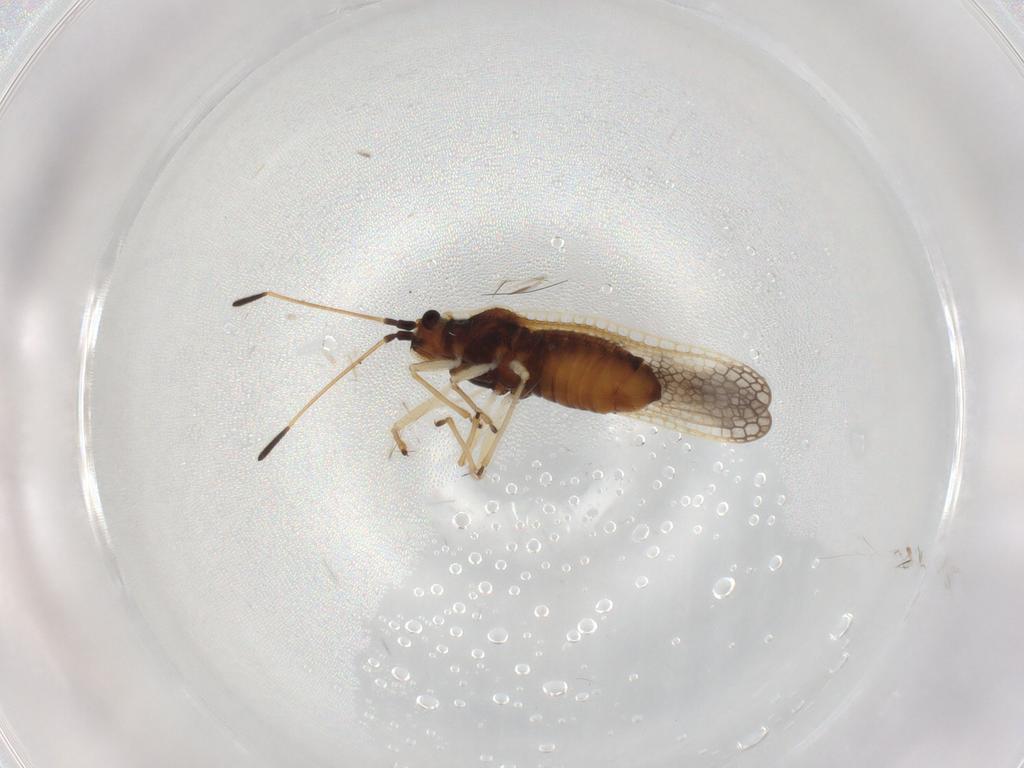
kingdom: Animalia
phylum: Arthropoda
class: Insecta
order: Hemiptera
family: Tingidae
